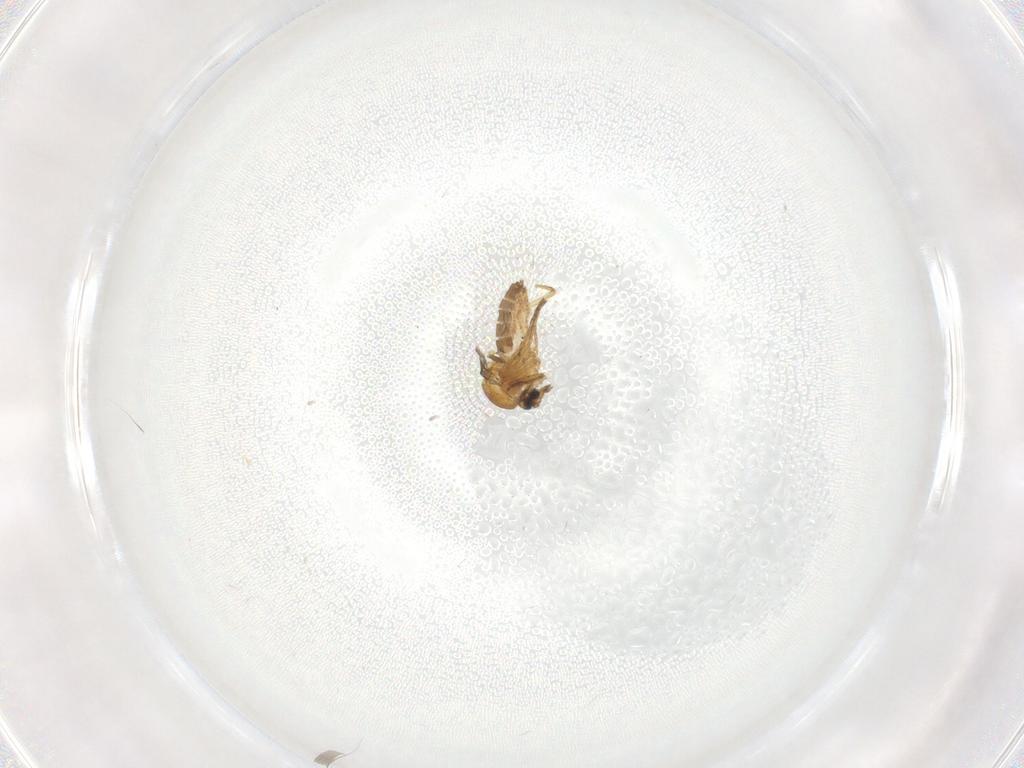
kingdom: Animalia
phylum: Arthropoda
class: Insecta
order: Diptera
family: Ceratopogonidae
